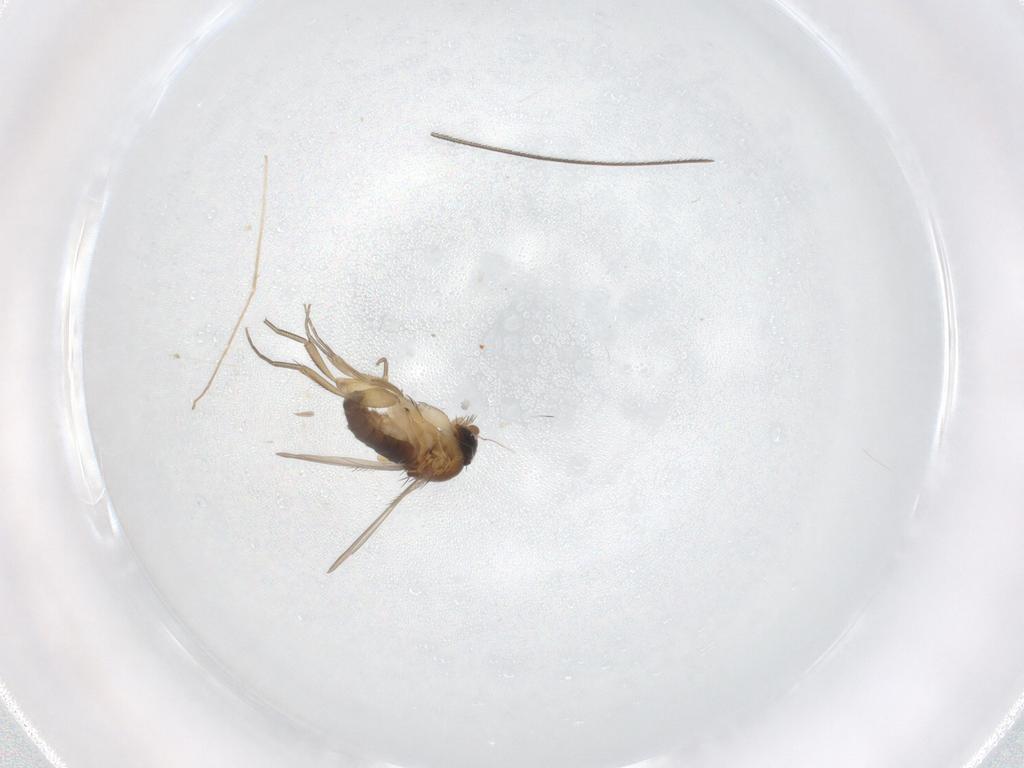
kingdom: Animalia
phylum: Arthropoda
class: Insecta
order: Diptera
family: Phoridae
